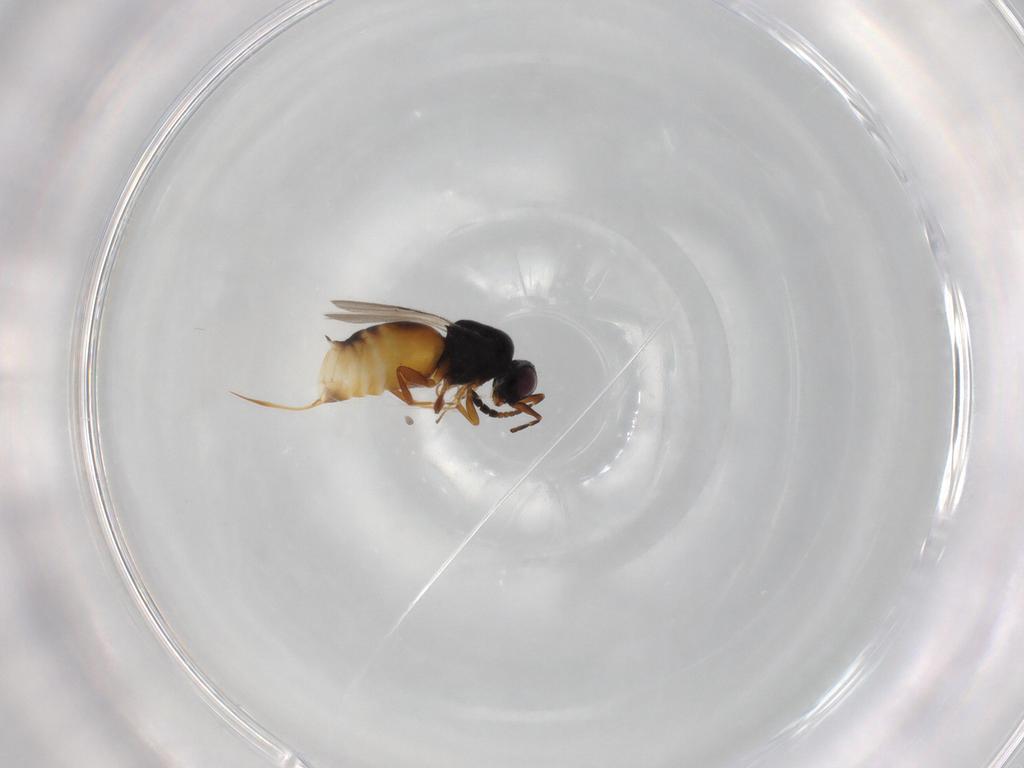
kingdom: Animalia
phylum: Arthropoda
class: Insecta
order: Hymenoptera
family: Ceraphronidae
